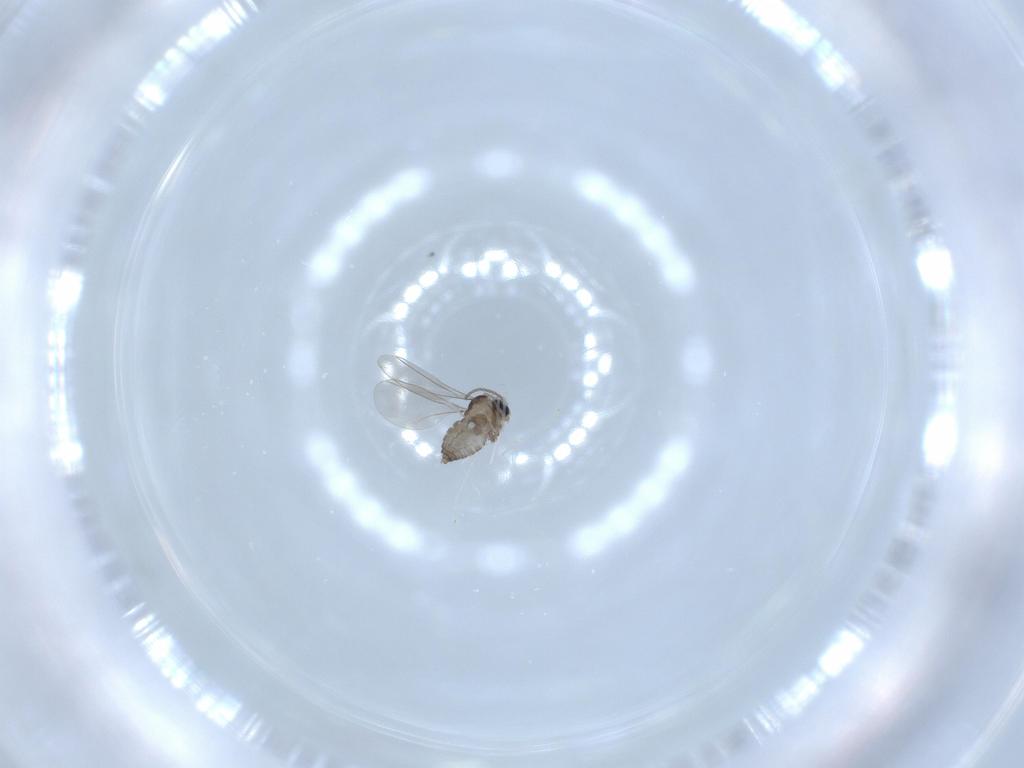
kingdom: Animalia
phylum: Arthropoda
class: Insecta
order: Diptera
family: Cecidomyiidae
